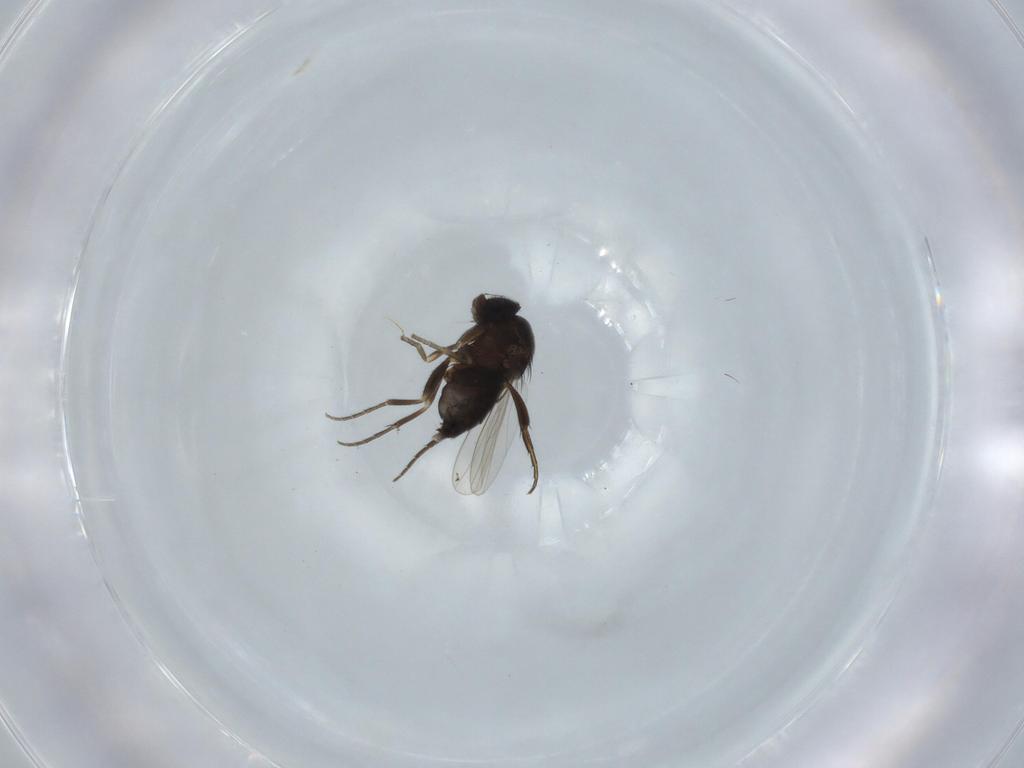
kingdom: Animalia
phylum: Arthropoda
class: Insecta
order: Diptera
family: Phoridae
